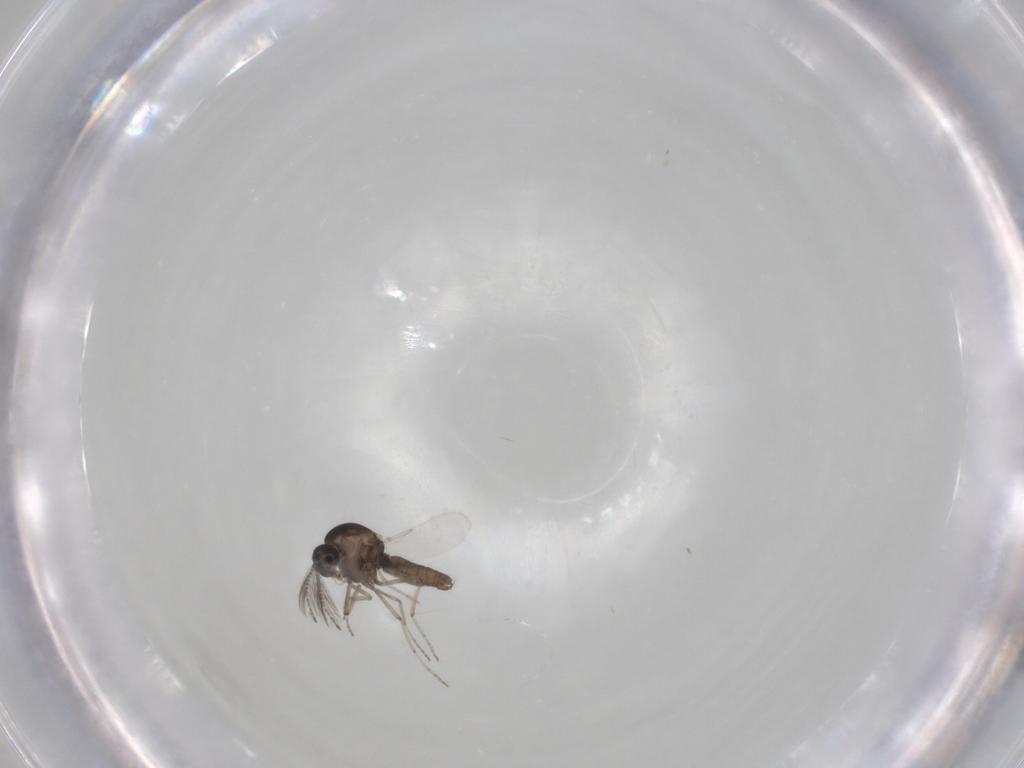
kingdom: Animalia
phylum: Arthropoda
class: Insecta
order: Diptera
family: Ceratopogonidae
